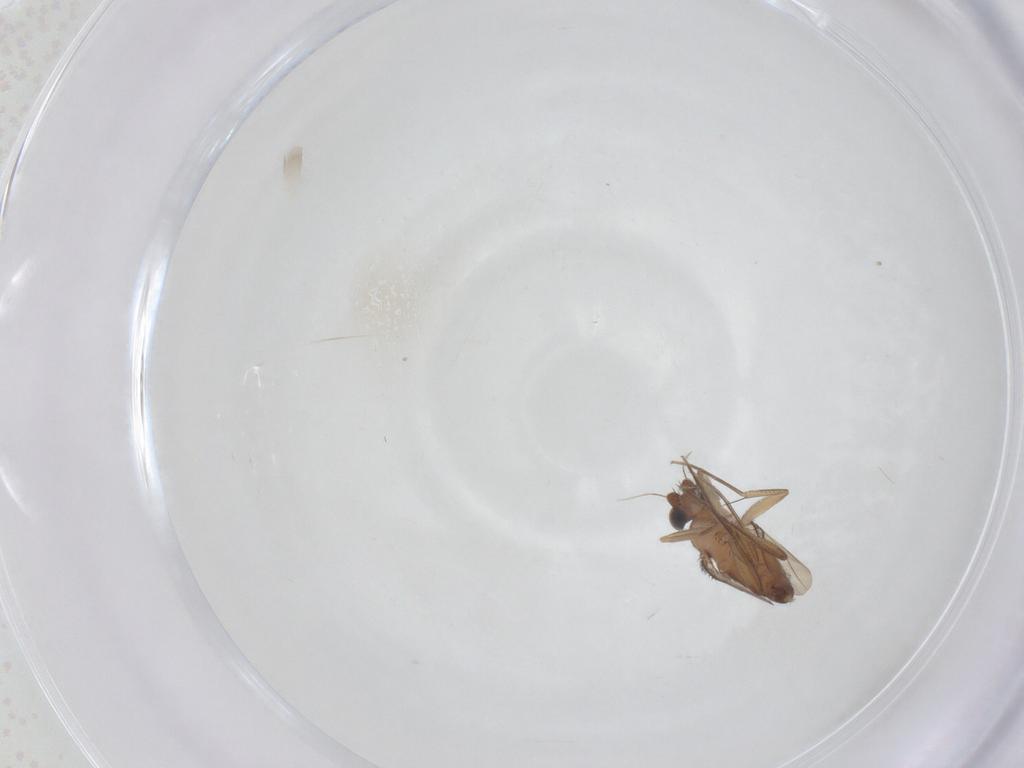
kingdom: Animalia
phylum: Arthropoda
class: Insecta
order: Diptera
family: Phoridae
